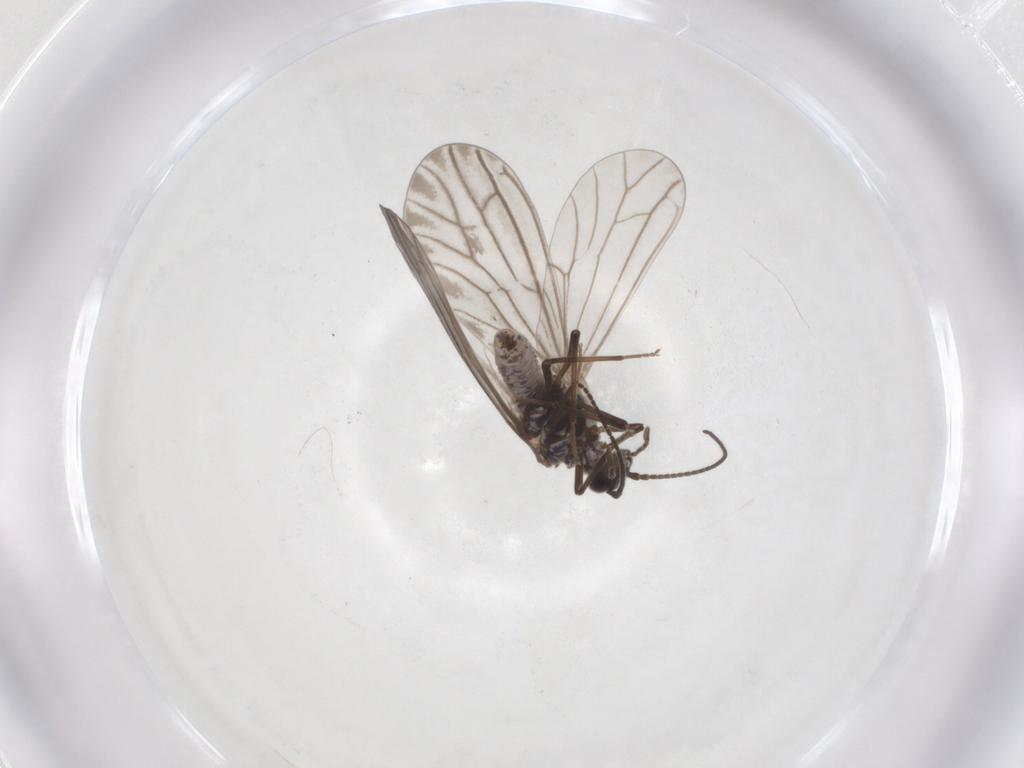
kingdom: Animalia
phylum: Arthropoda
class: Insecta
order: Neuroptera
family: Coniopterygidae
